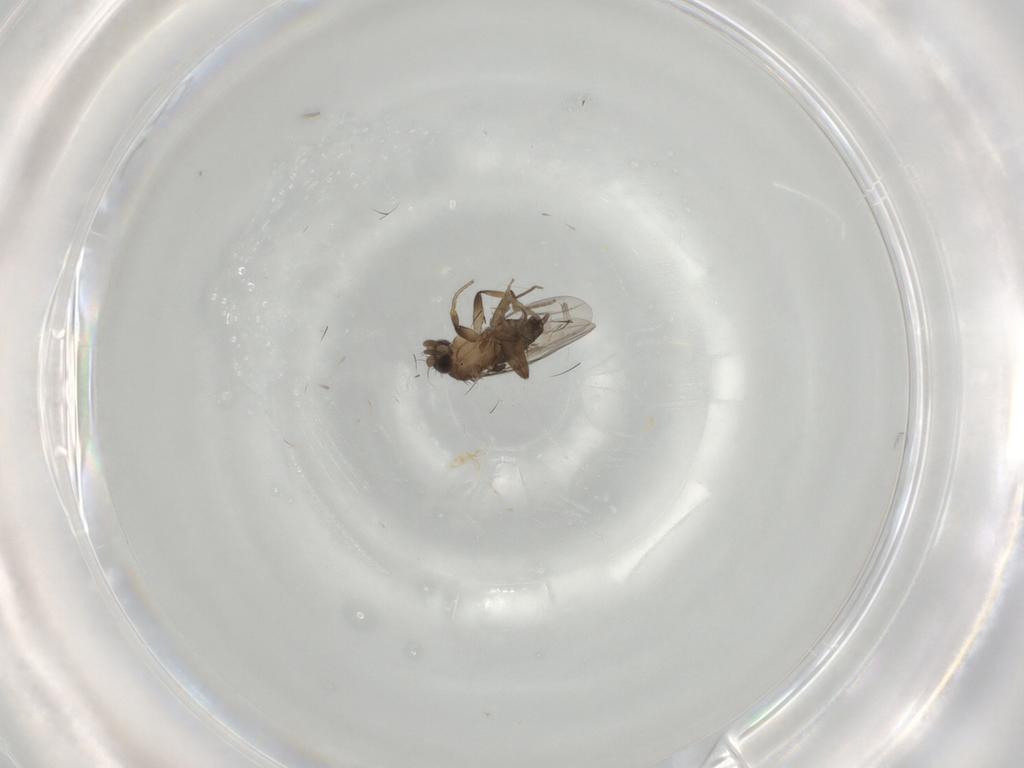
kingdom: Animalia
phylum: Arthropoda
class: Insecta
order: Diptera
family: Phoridae
